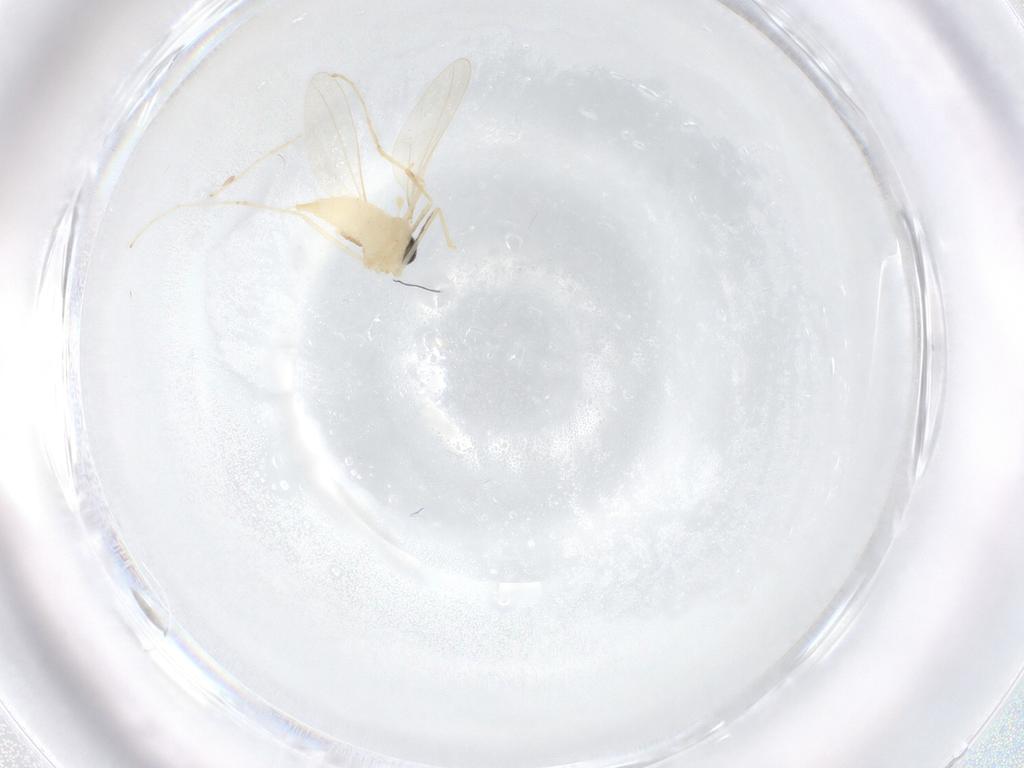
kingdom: Animalia
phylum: Arthropoda
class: Insecta
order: Diptera
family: Cecidomyiidae
